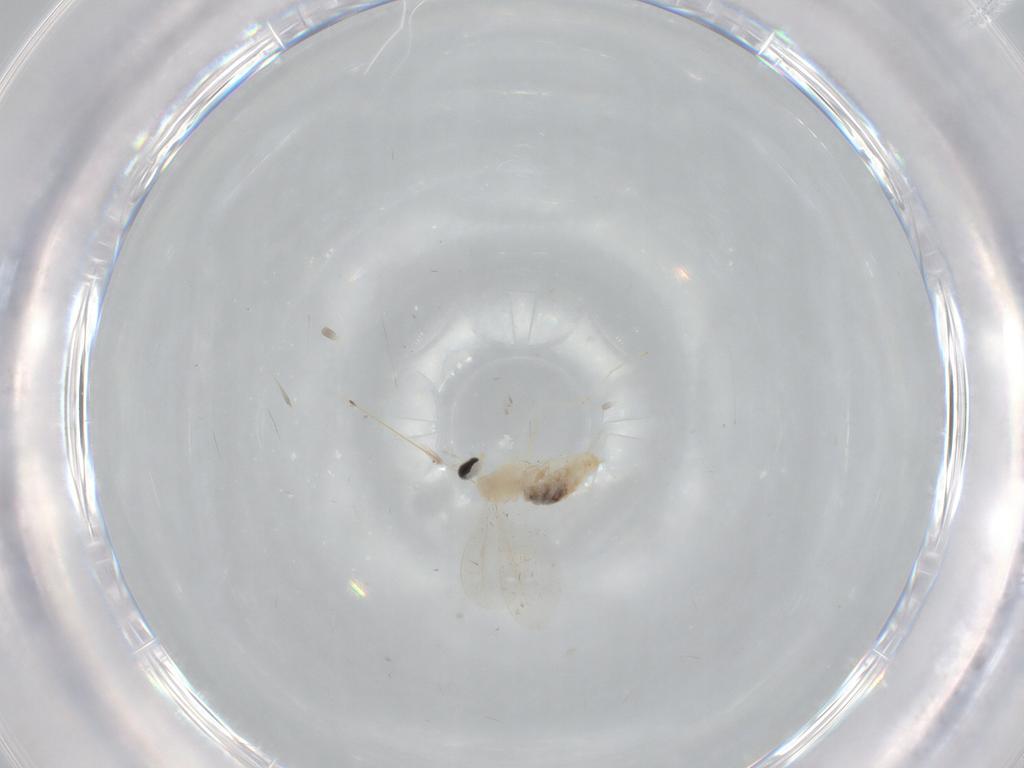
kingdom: Animalia
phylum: Arthropoda
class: Insecta
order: Diptera
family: Cecidomyiidae
